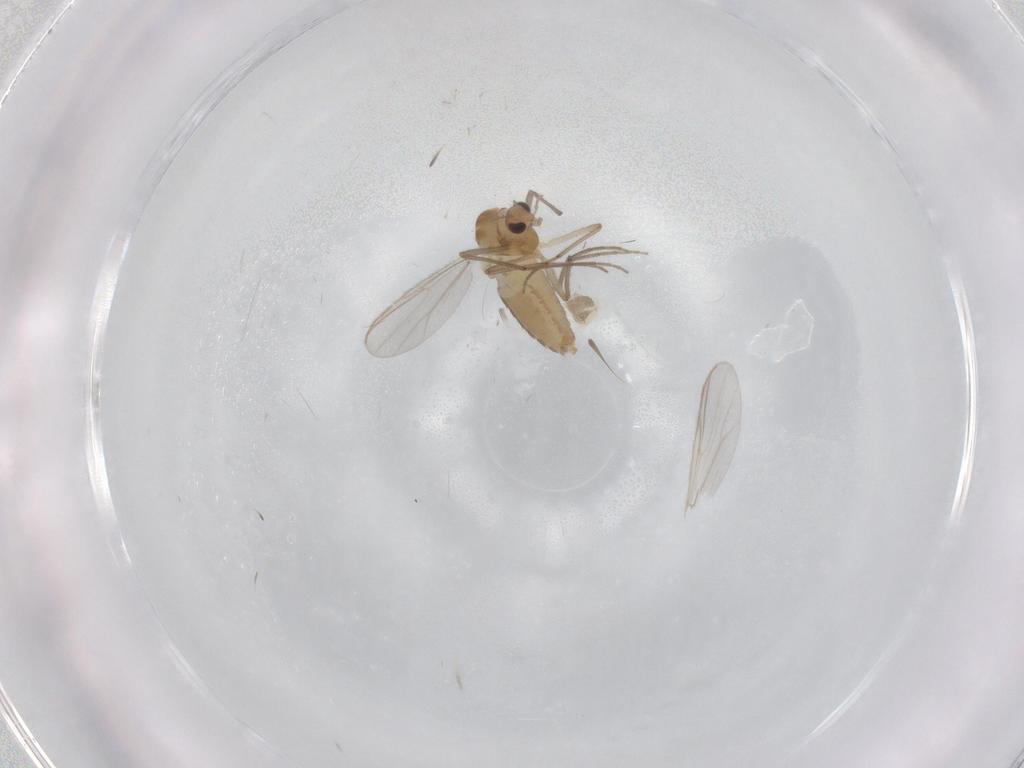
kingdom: Animalia
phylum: Arthropoda
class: Insecta
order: Diptera
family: Chironomidae
